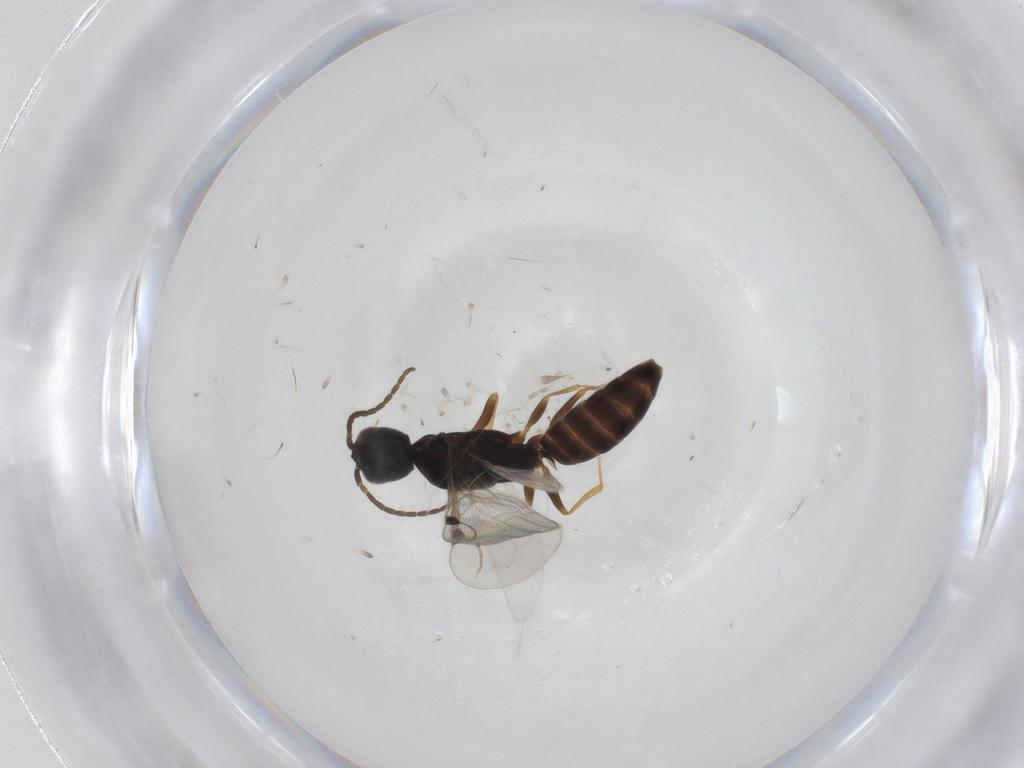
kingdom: Animalia
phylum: Arthropoda
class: Insecta
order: Hymenoptera
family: Bethylidae
